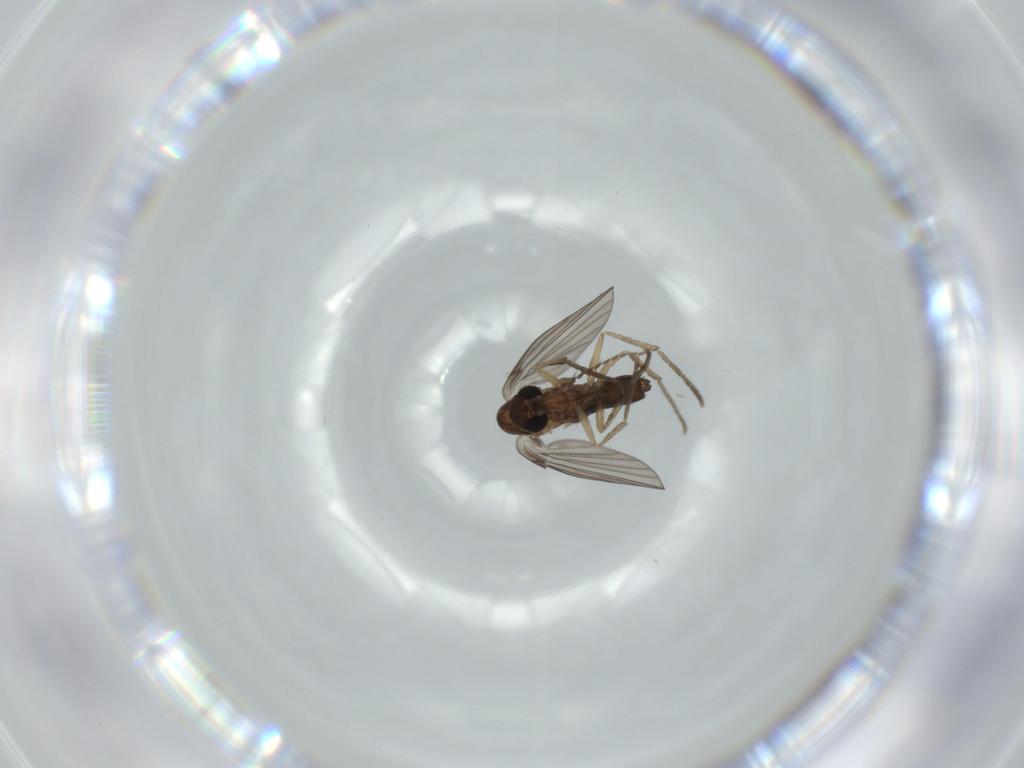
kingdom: Animalia
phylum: Arthropoda
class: Insecta
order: Diptera
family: Psychodidae
